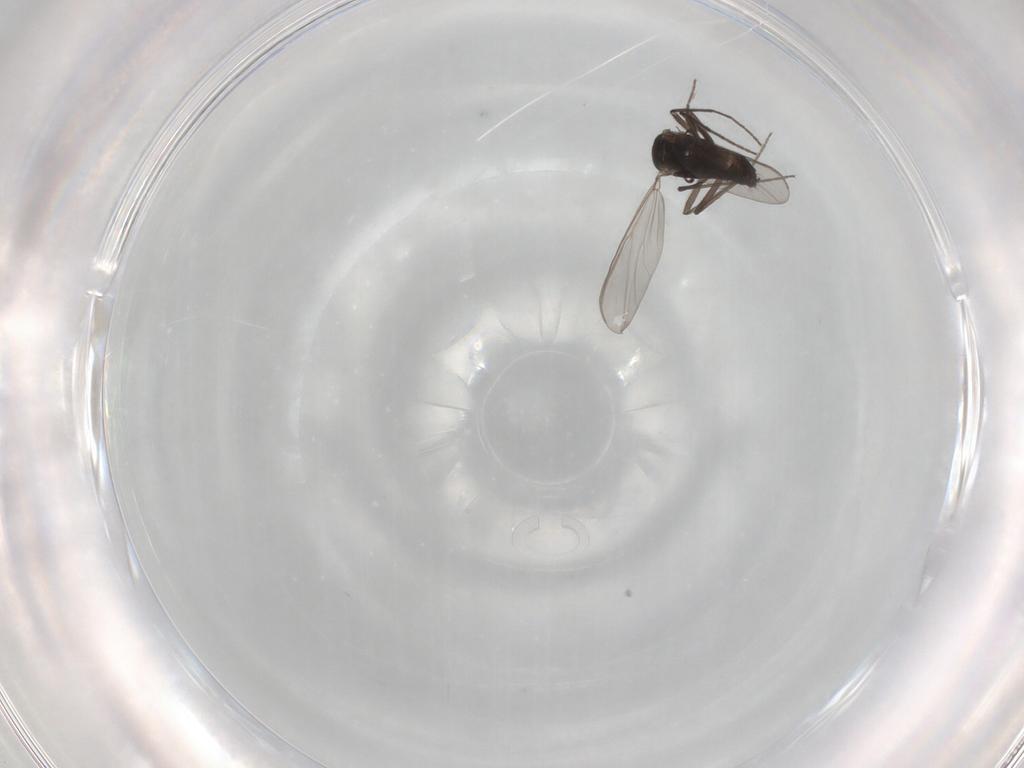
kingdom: Animalia
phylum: Arthropoda
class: Insecta
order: Diptera
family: Chironomidae
